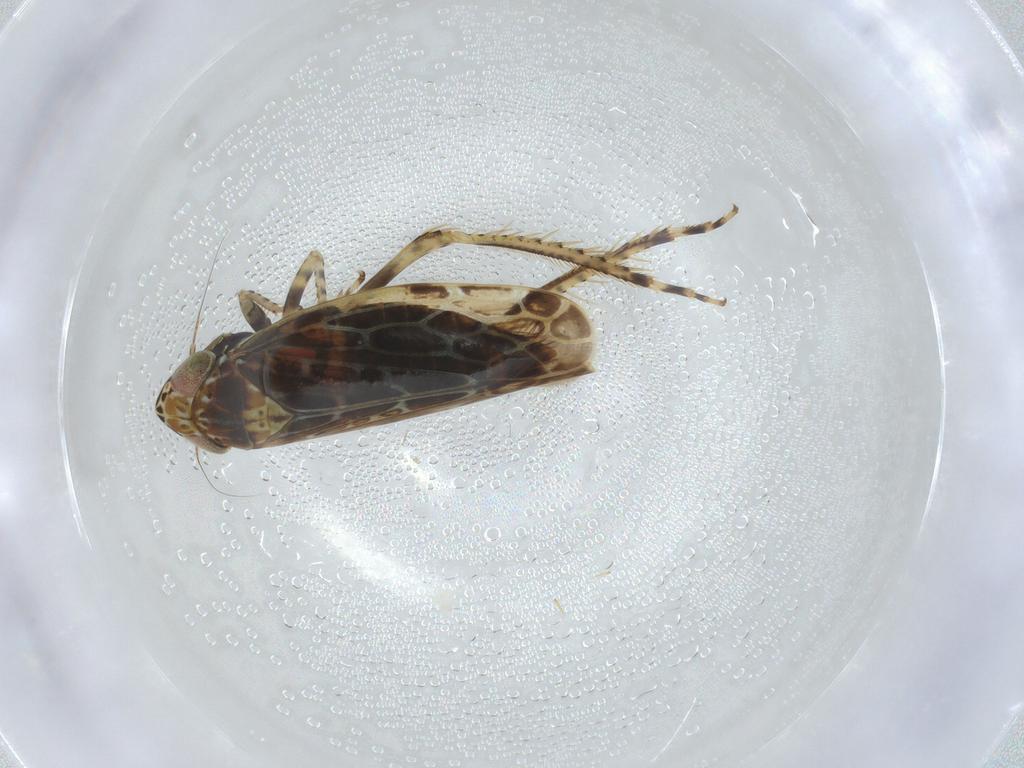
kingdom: Animalia
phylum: Arthropoda
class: Insecta
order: Hemiptera
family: Cicadellidae
